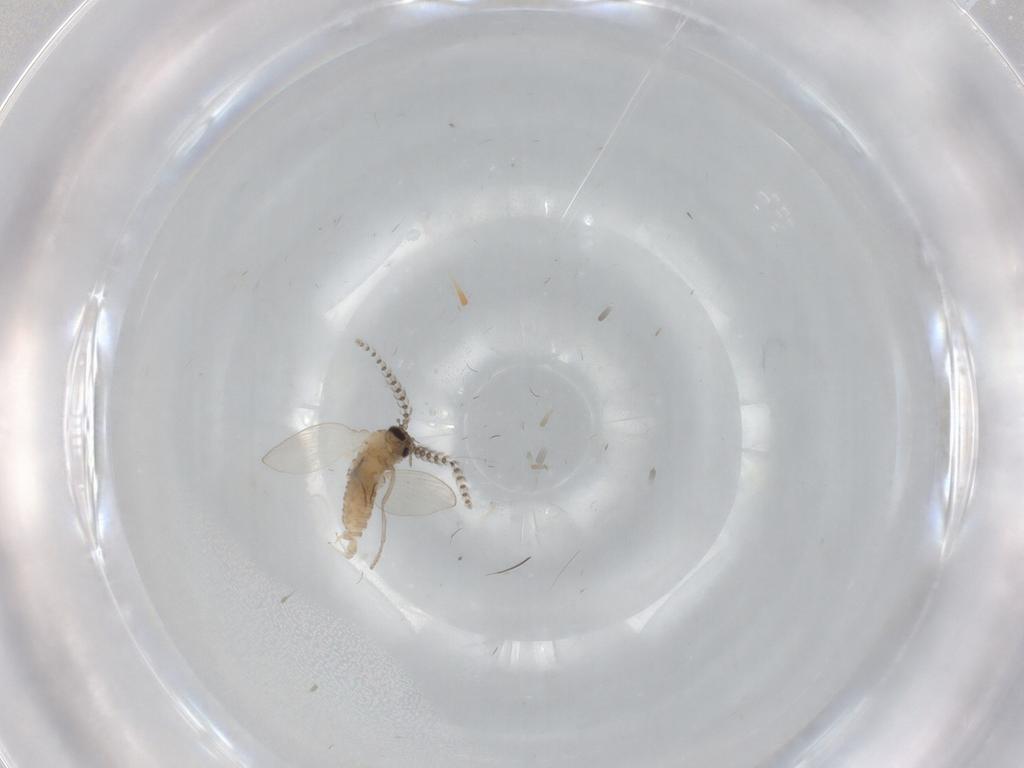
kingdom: Animalia
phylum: Arthropoda
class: Insecta
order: Diptera
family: Psychodidae
